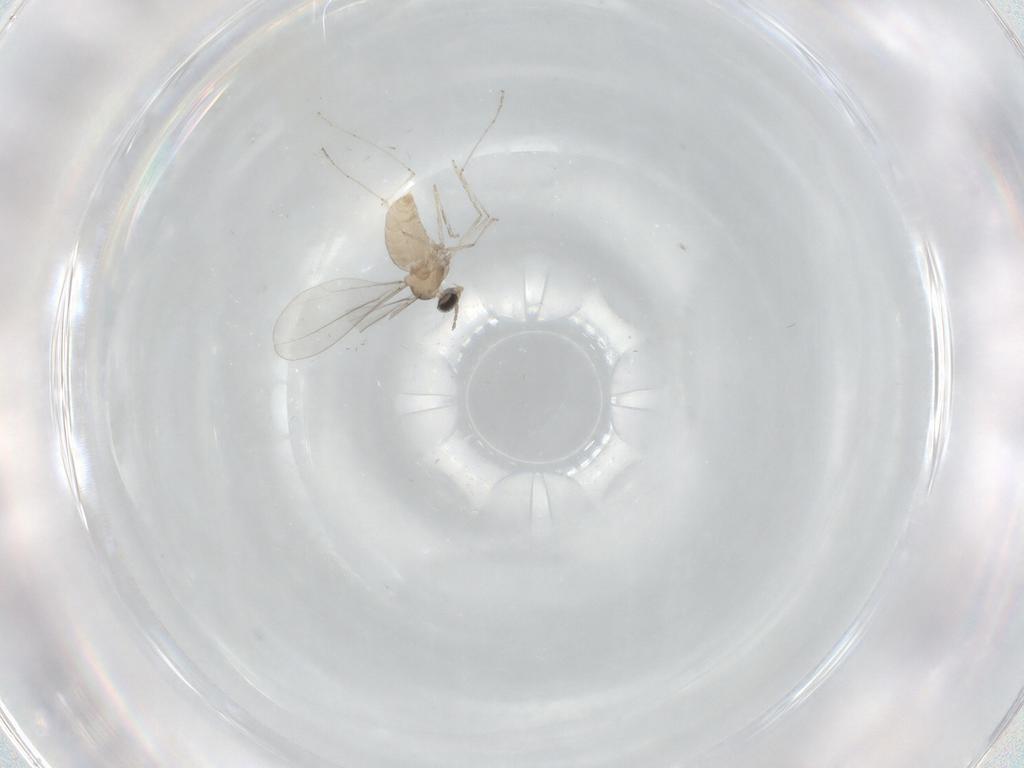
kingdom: Animalia
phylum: Arthropoda
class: Insecta
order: Diptera
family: Cecidomyiidae
